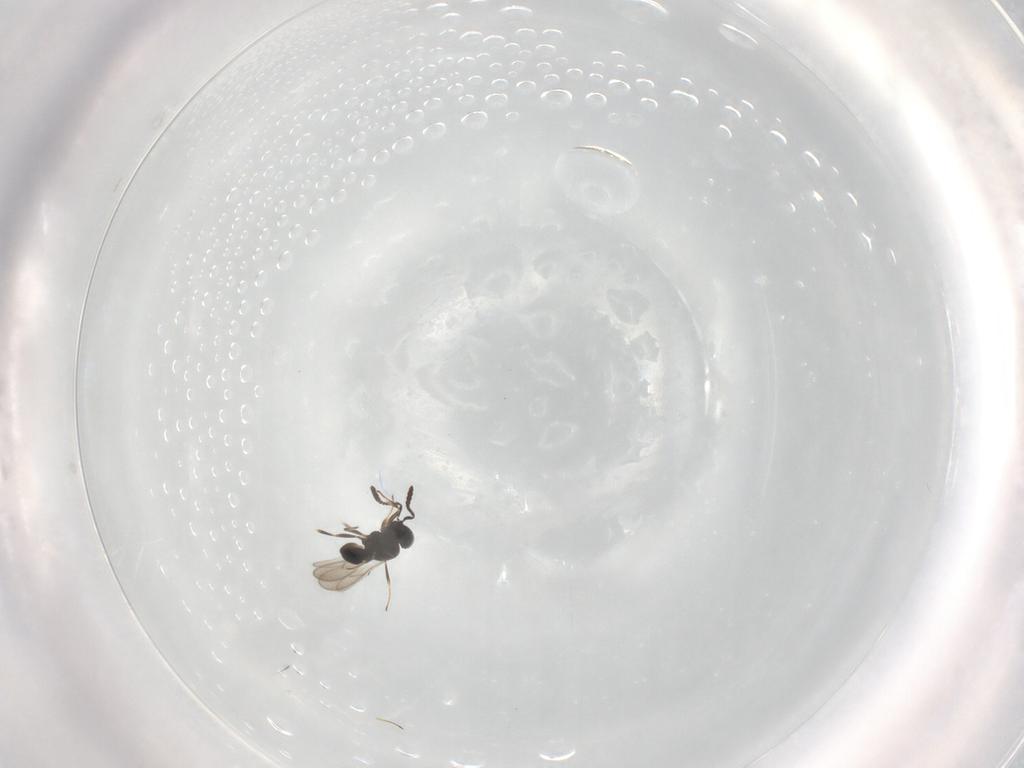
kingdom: Animalia
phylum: Arthropoda
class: Insecta
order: Hymenoptera
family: Scelionidae
